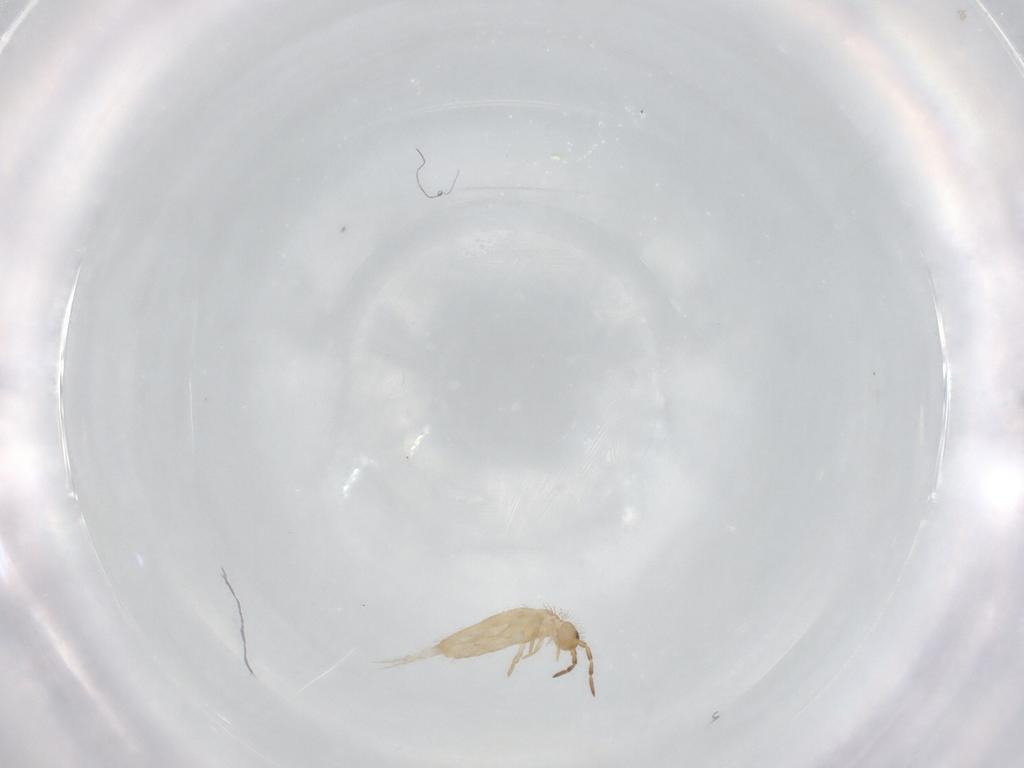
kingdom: Animalia
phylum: Arthropoda
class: Collembola
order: Entomobryomorpha
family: Entomobryidae
